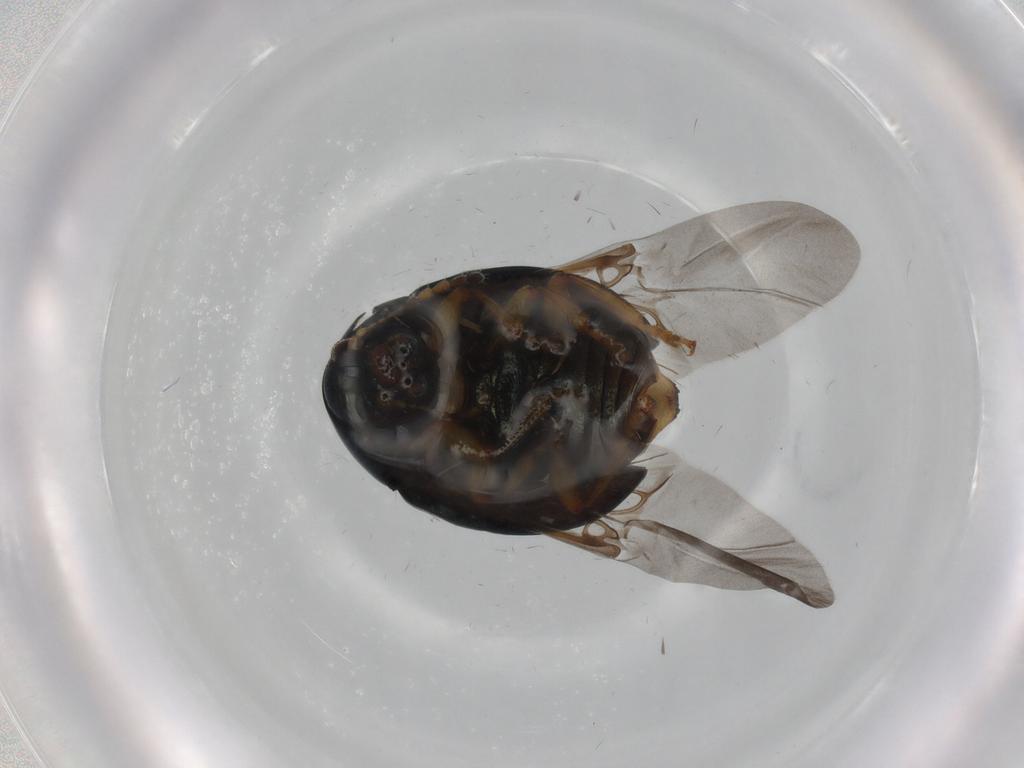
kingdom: Animalia
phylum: Arthropoda
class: Insecta
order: Coleoptera
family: Chrysomelidae
